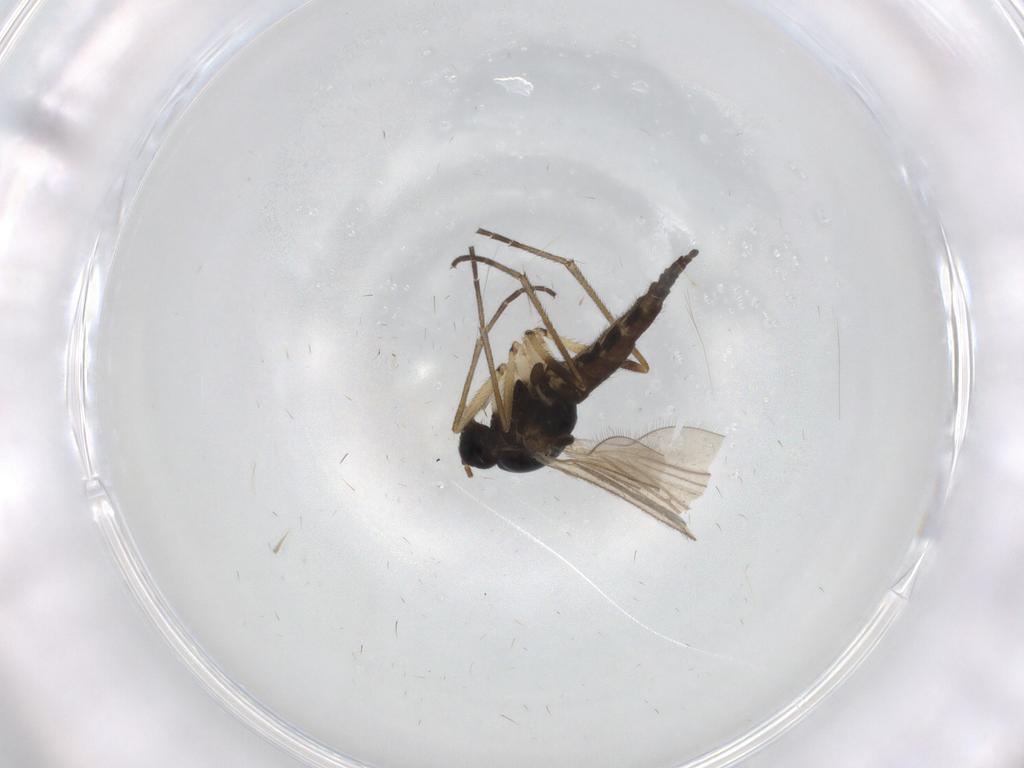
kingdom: Animalia
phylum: Arthropoda
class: Insecta
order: Diptera
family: Sciaridae
